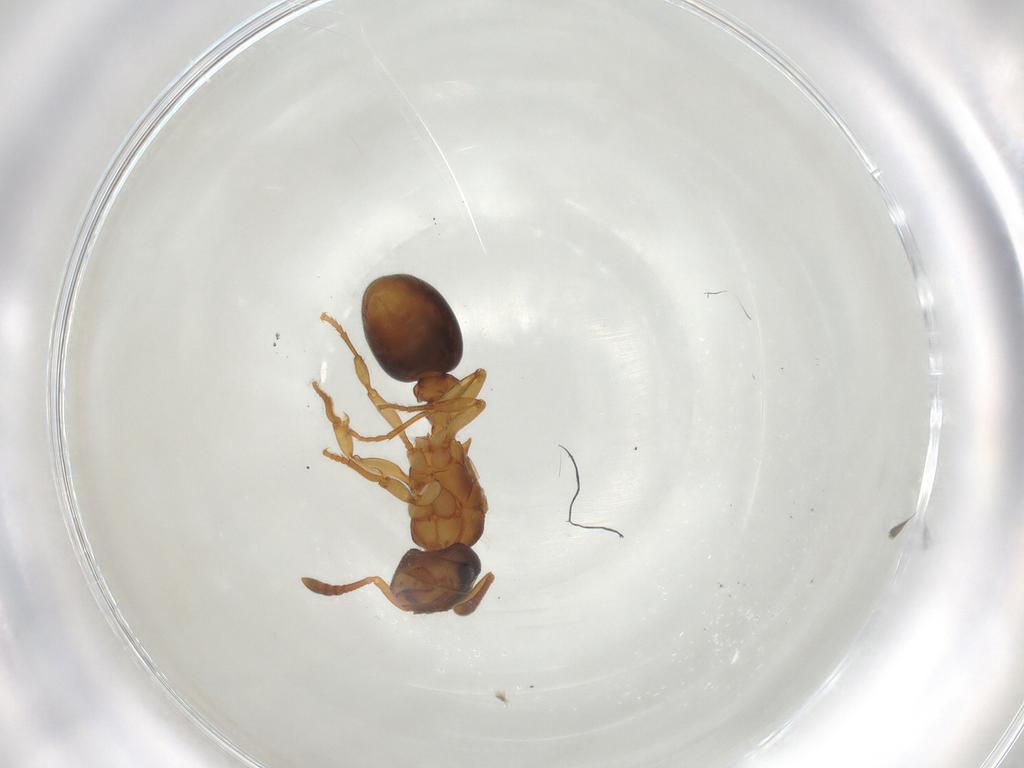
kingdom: Animalia
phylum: Arthropoda
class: Insecta
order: Hymenoptera
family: Formicidae
